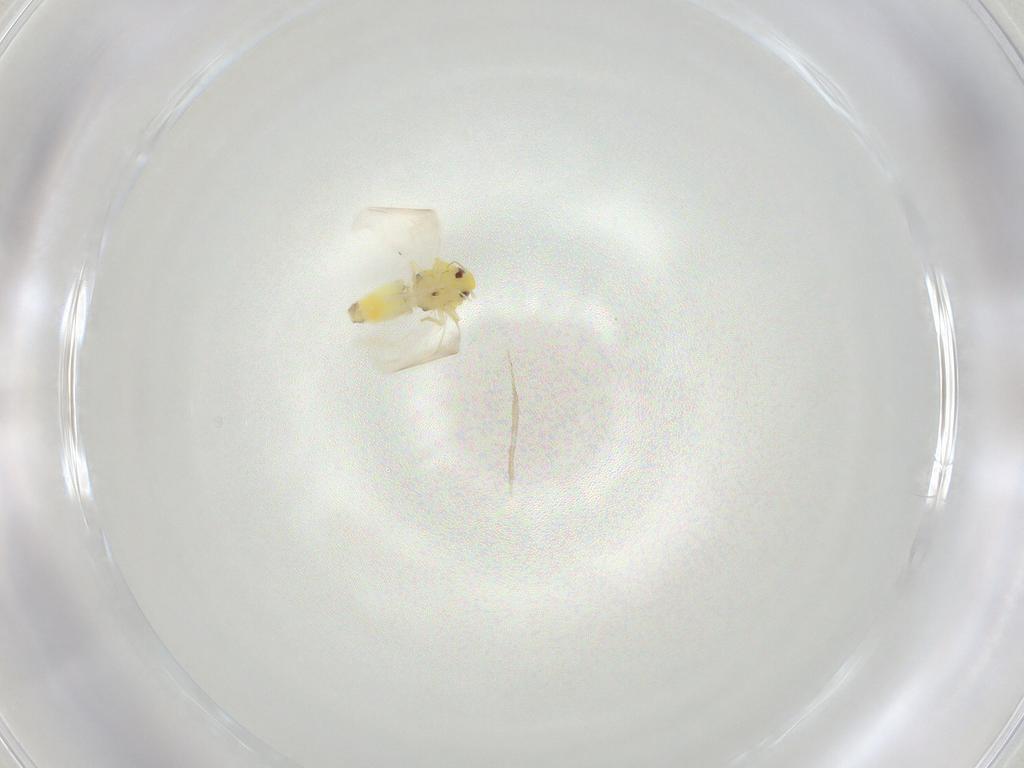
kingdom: Animalia
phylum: Arthropoda
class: Insecta
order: Hemiptera
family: Aleyrodidae
